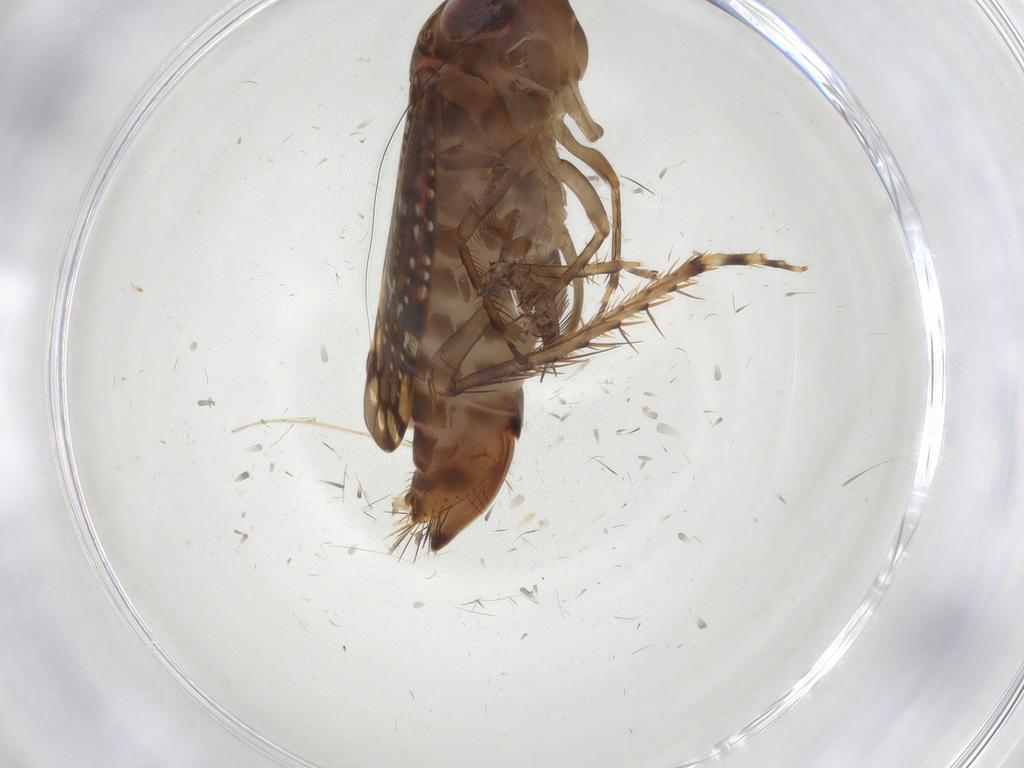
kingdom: Animalia
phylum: Arthropoda
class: Insecta
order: Hemiptera
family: Cicadellidae
